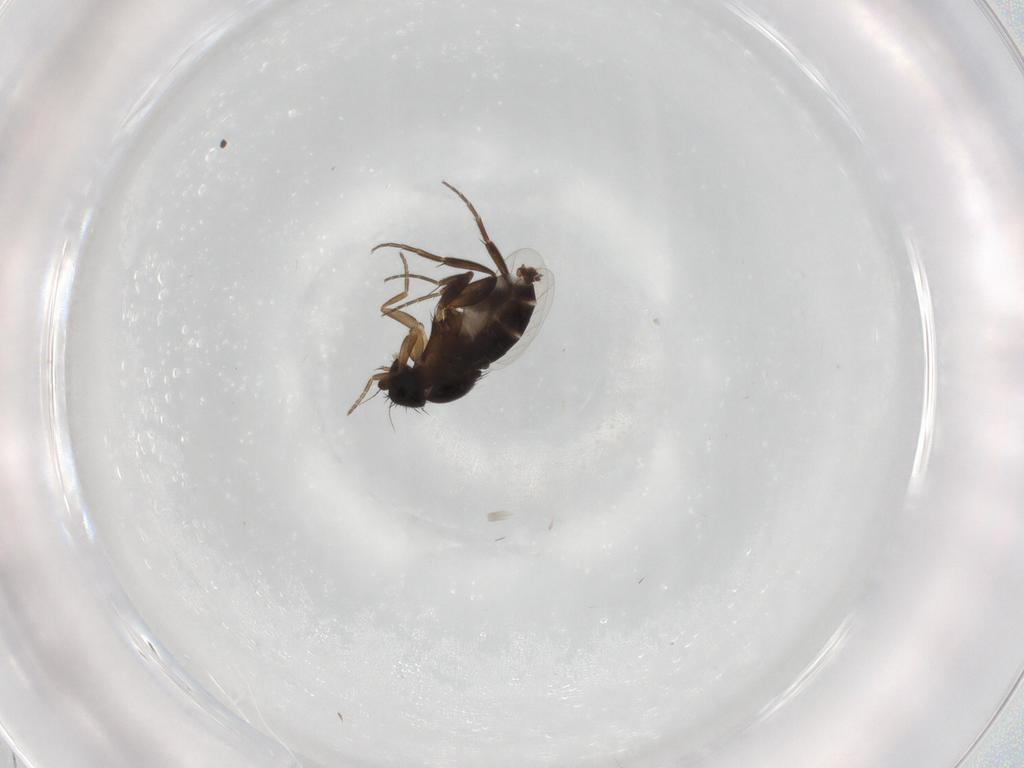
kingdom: Animalia
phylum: Arthropoda
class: Insecta
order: Diptera
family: Phoridae
